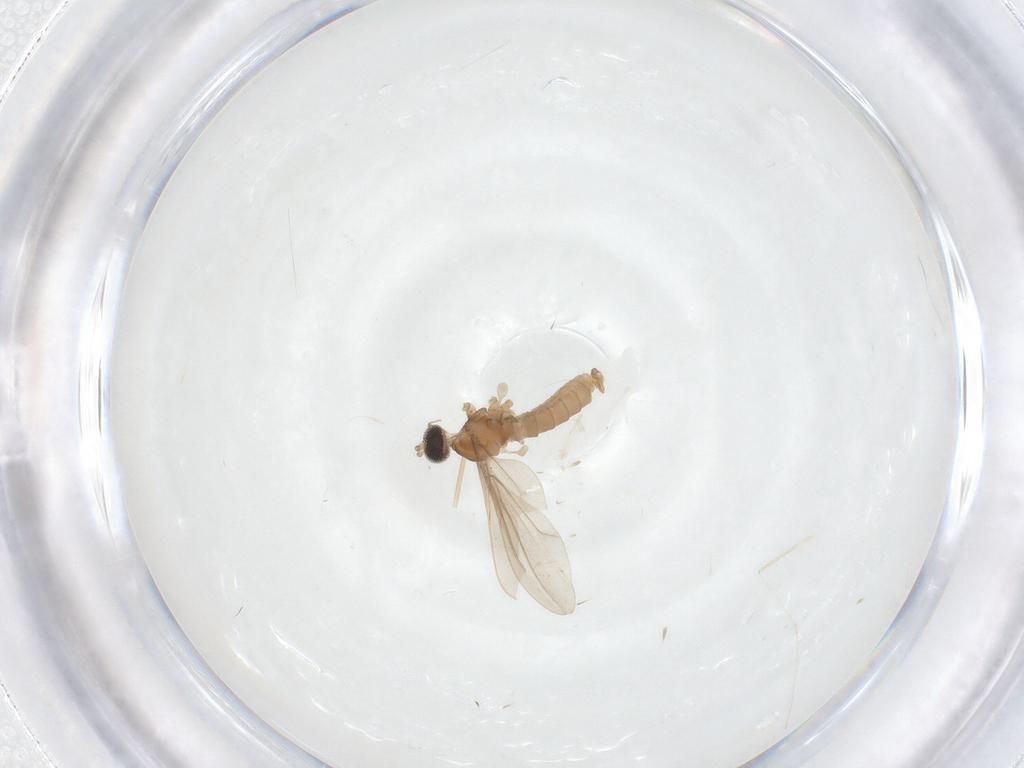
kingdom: Animalia
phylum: Arthropoda
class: Insecta
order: Diptera
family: Cecidomyiidae
